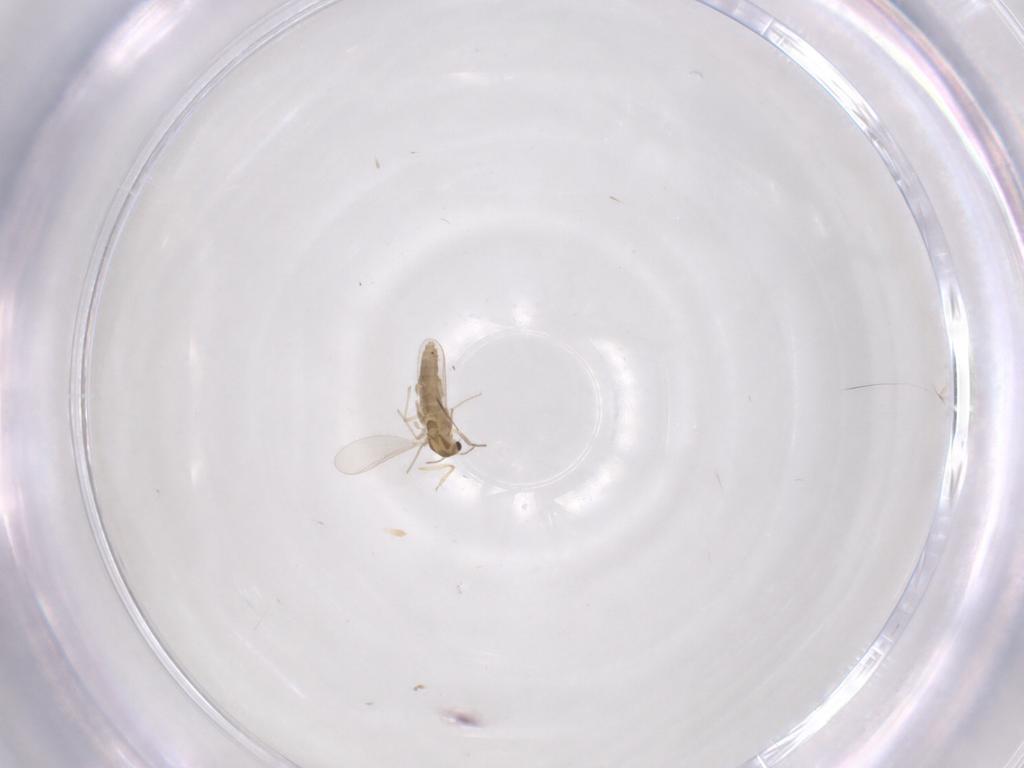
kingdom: Animalia
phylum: Arthropoda
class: Insecta
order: Diptera
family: Chironomidae
